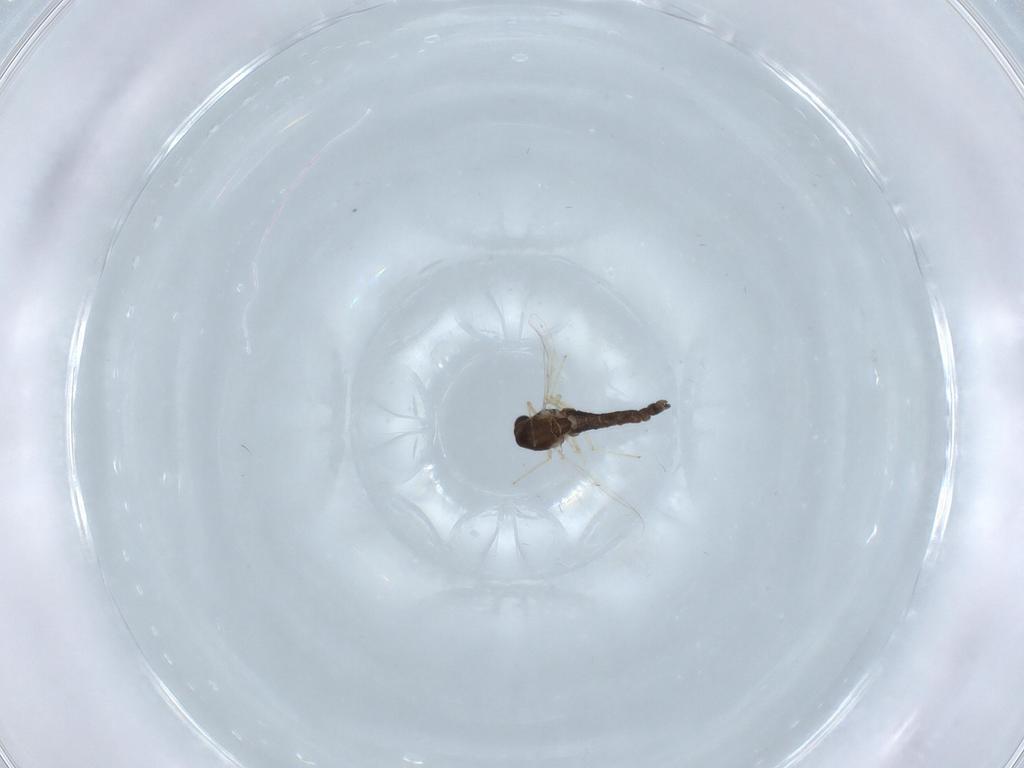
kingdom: Animalia
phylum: Arthropoda
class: Insecta
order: Diptera
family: Chironomidae
